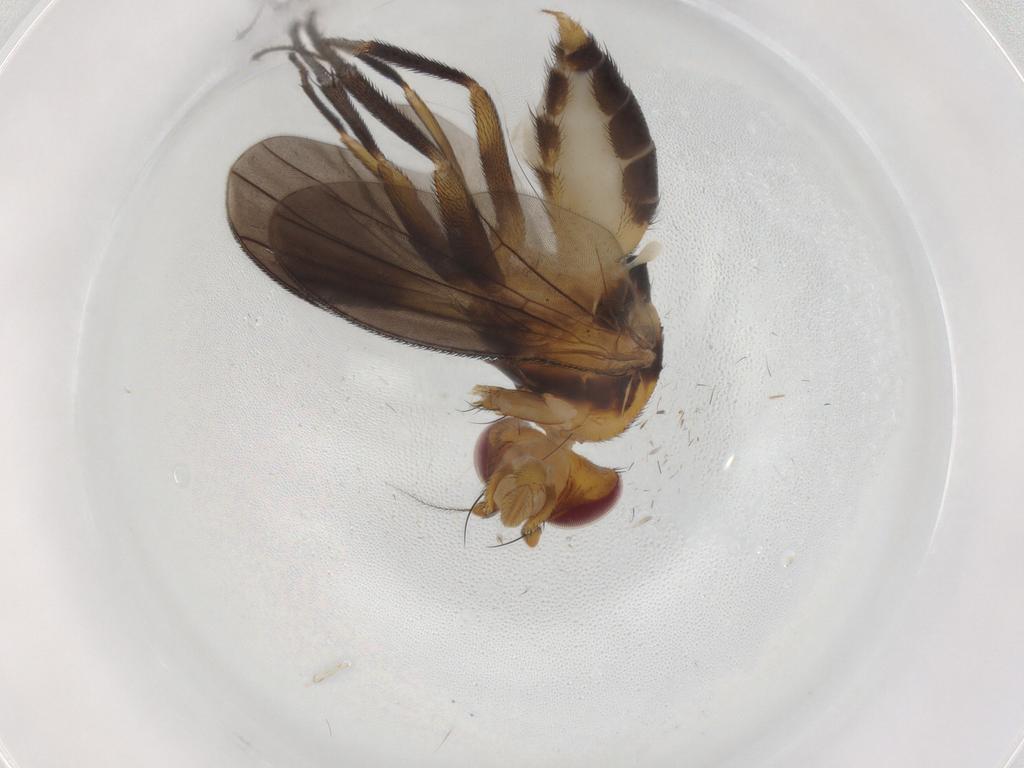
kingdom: Animalia
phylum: Arthropoda
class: Insecta
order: Diptera
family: Clusiidae
